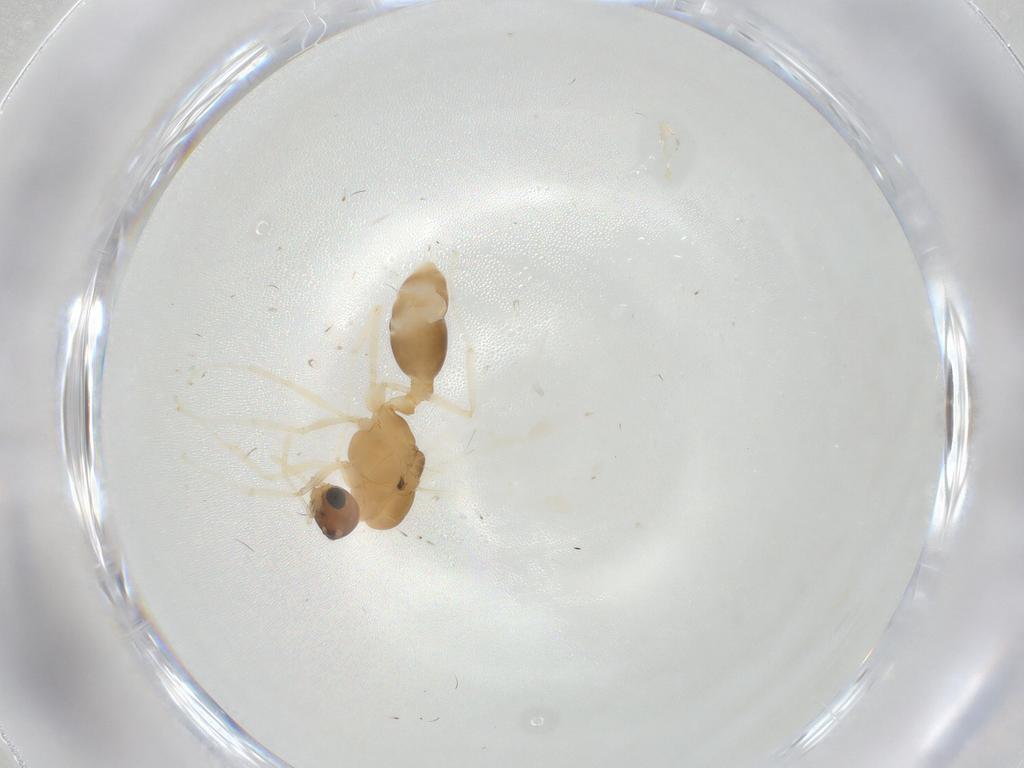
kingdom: Animalia
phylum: Arthropoda
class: Insecta
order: Hymenoptera
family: Formicidae
